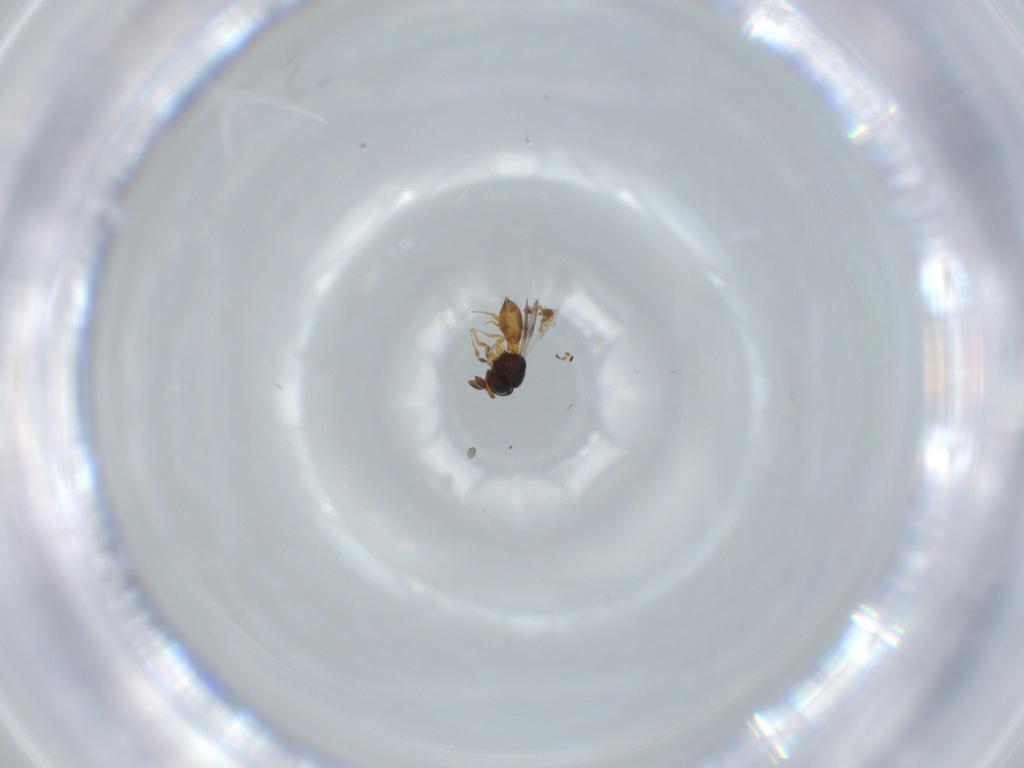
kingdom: Animalia
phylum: Arthropoda
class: Insecta
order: Hymenoptera
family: Scelionidae
